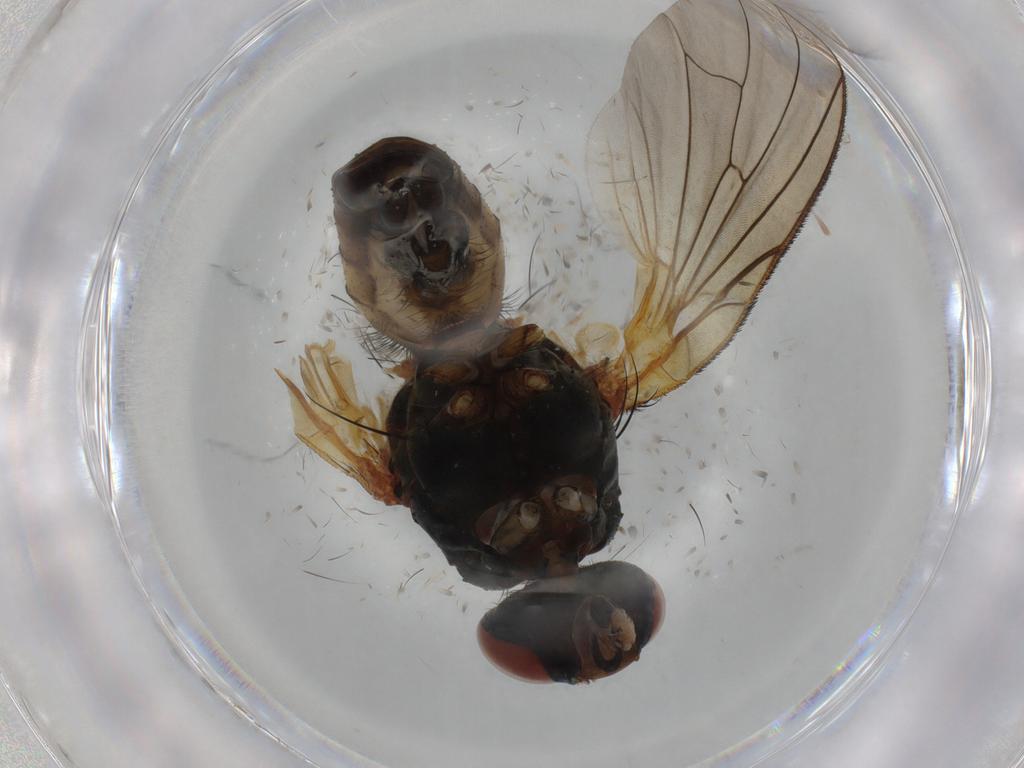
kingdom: Animalia
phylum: Arthropoda
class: Insecta
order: Diptera
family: Anthomyiidae
